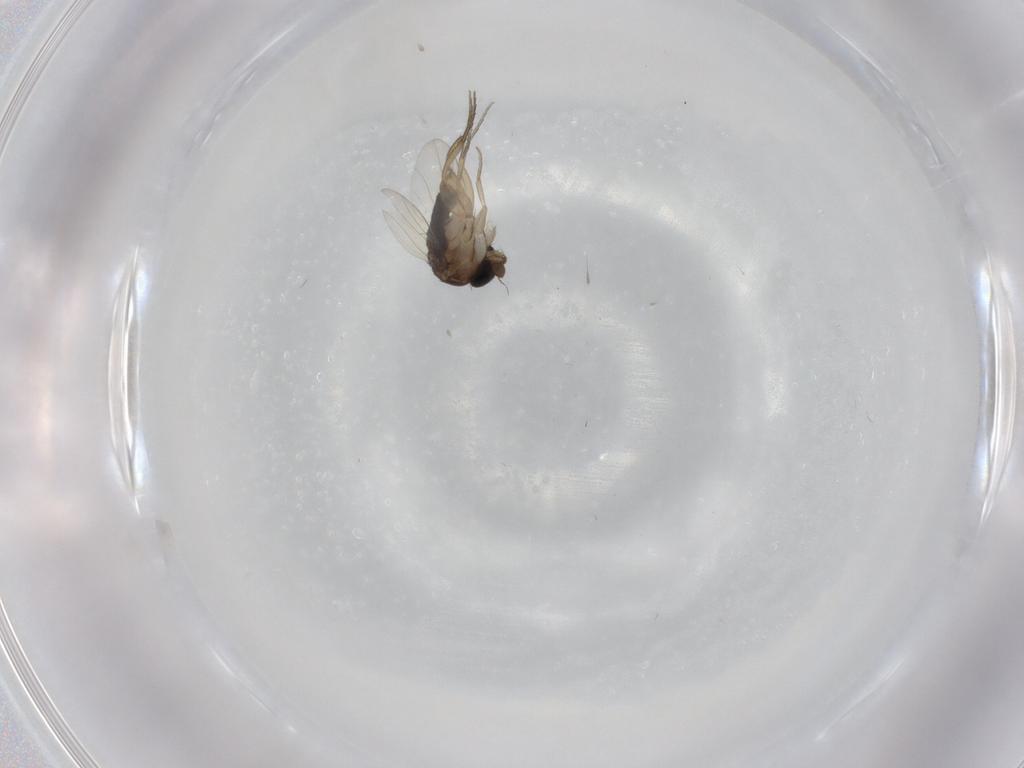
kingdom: Animalia
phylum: Arthropoda
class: Insecta
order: Diptera
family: Phoridae
